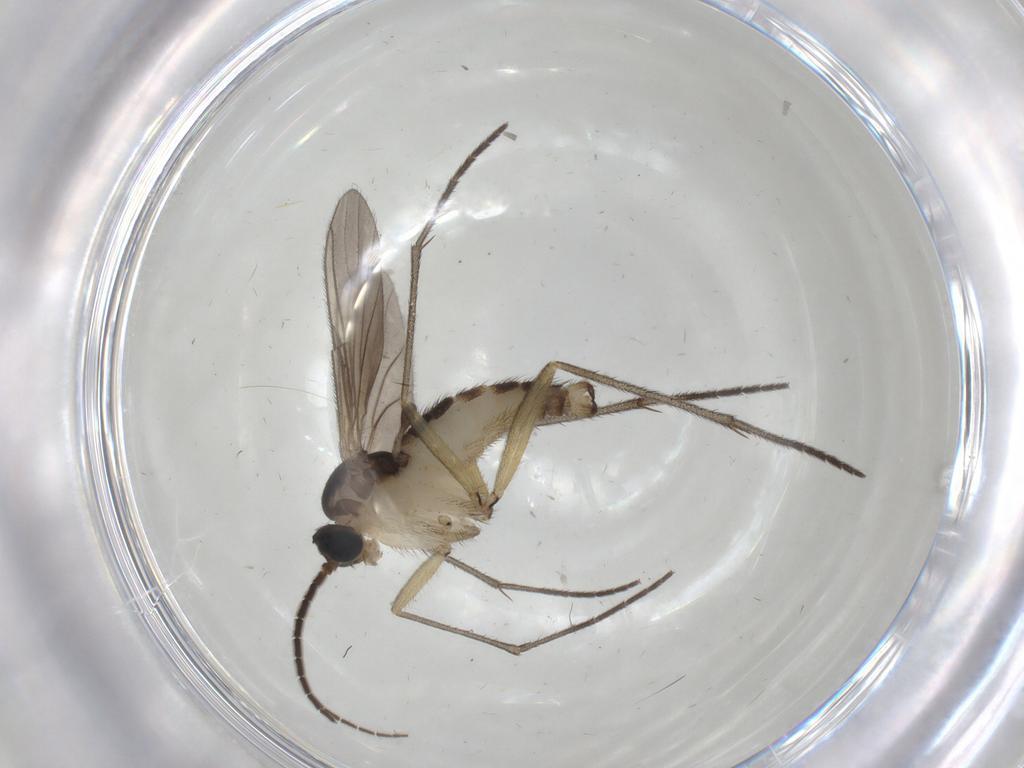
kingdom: Animalia
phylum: Arthropoda
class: Insecta
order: Diptera
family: Sciaridae
